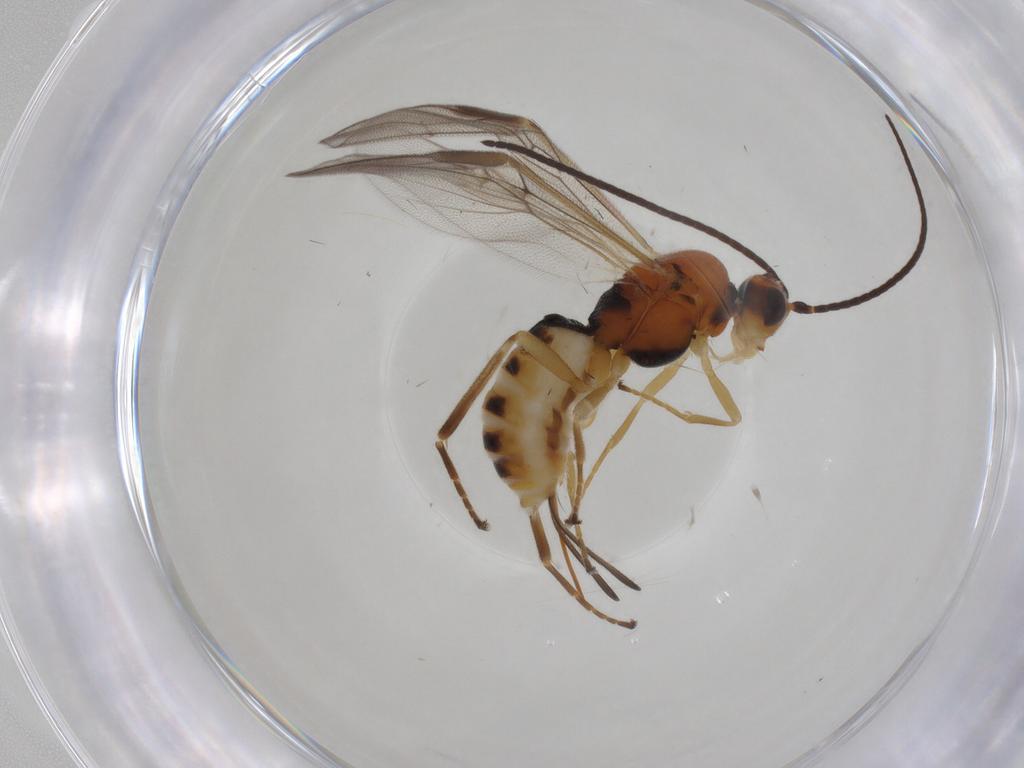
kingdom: Animalia
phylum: Arthropoda
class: Insecta
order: Hymenoptera
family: Braconidae
